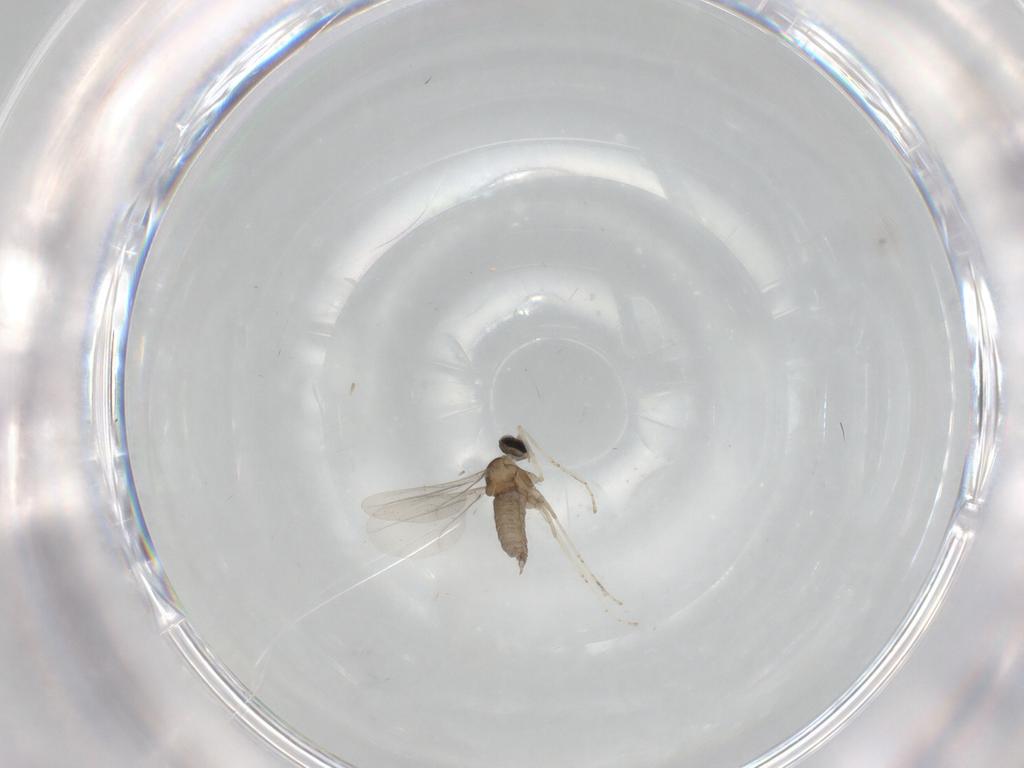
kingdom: Animalia
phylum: Arthropoda
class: Insecta
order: Diptera
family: Cecidomyiidae
